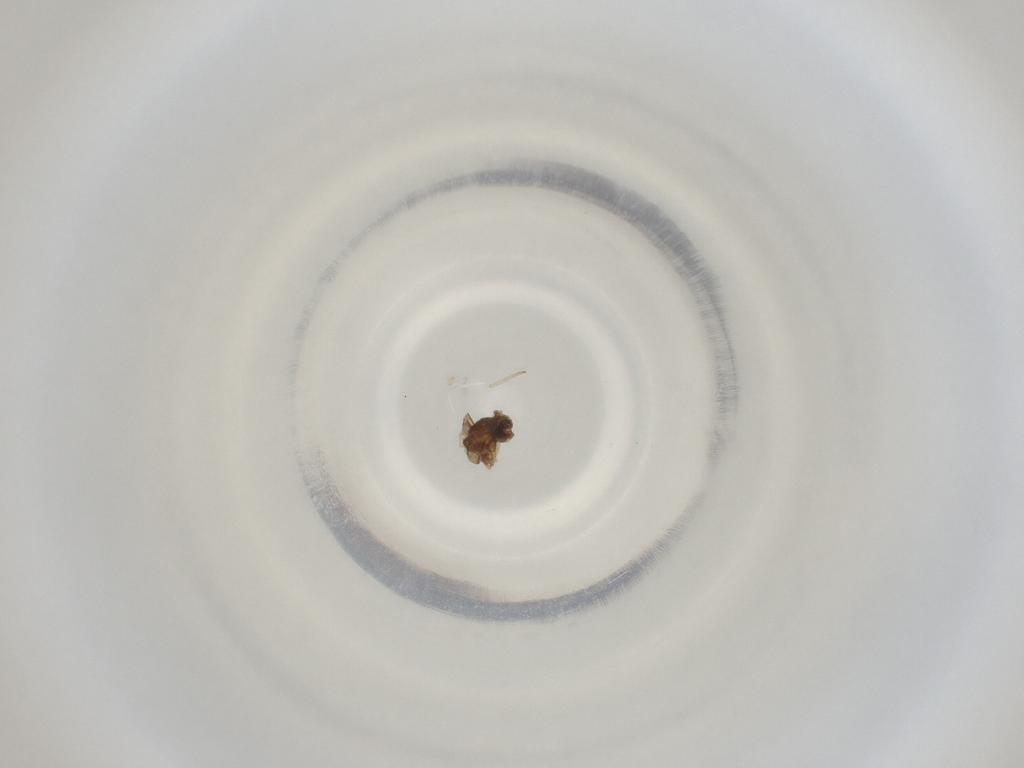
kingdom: Animalia
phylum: Arthropoda
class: Insecta
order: Diptera
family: Cecidomyiidae
